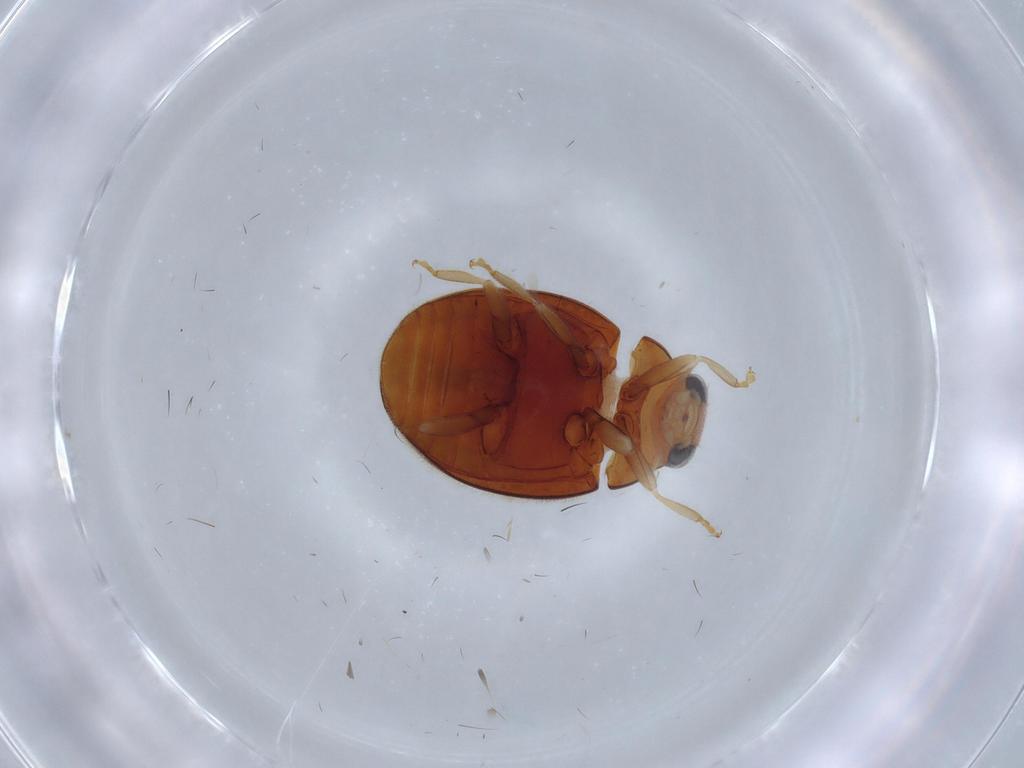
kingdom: Animalia
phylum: Arthropoda
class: Insecta
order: Coleoptera
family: Coccinellidae
